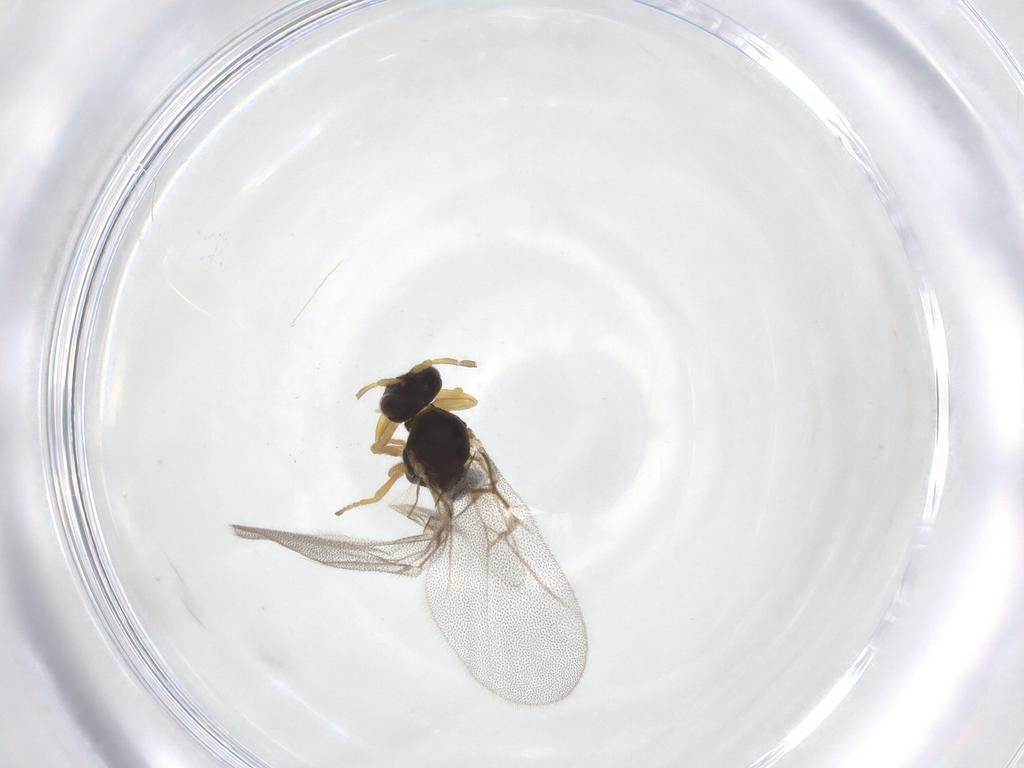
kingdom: Animalia
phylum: Arthropoda
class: Insecta
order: Hymenoptera
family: Cynipidae
